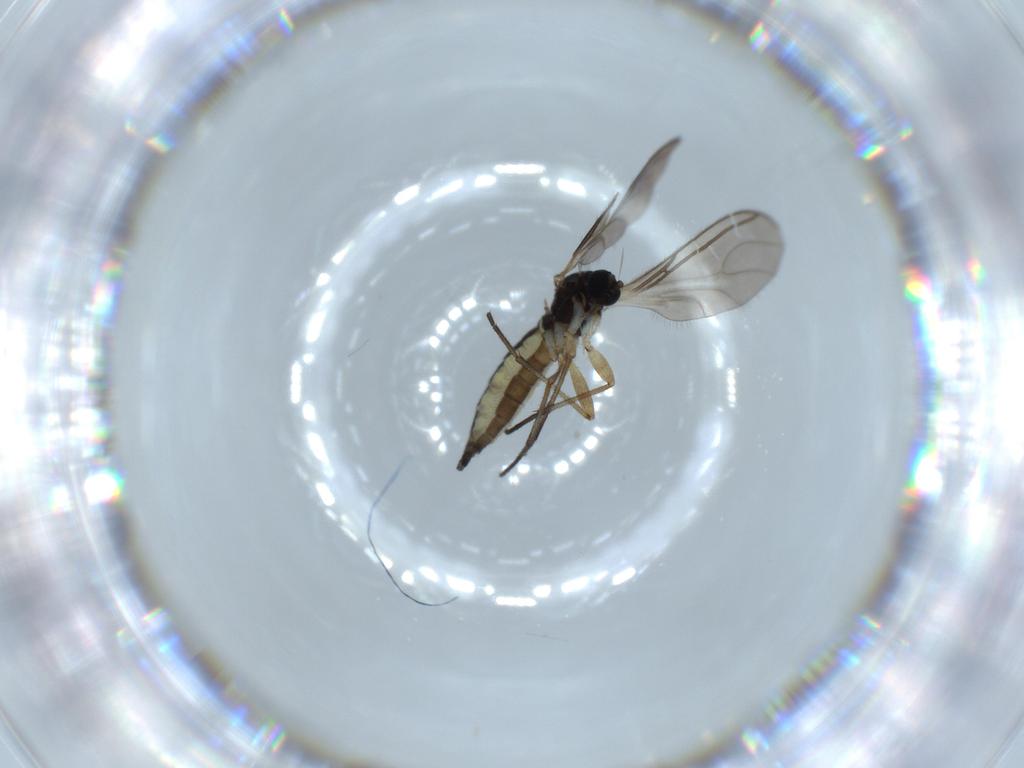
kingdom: Animalia
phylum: Arthropoda
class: Insecta
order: Diptera
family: Sciaridae
